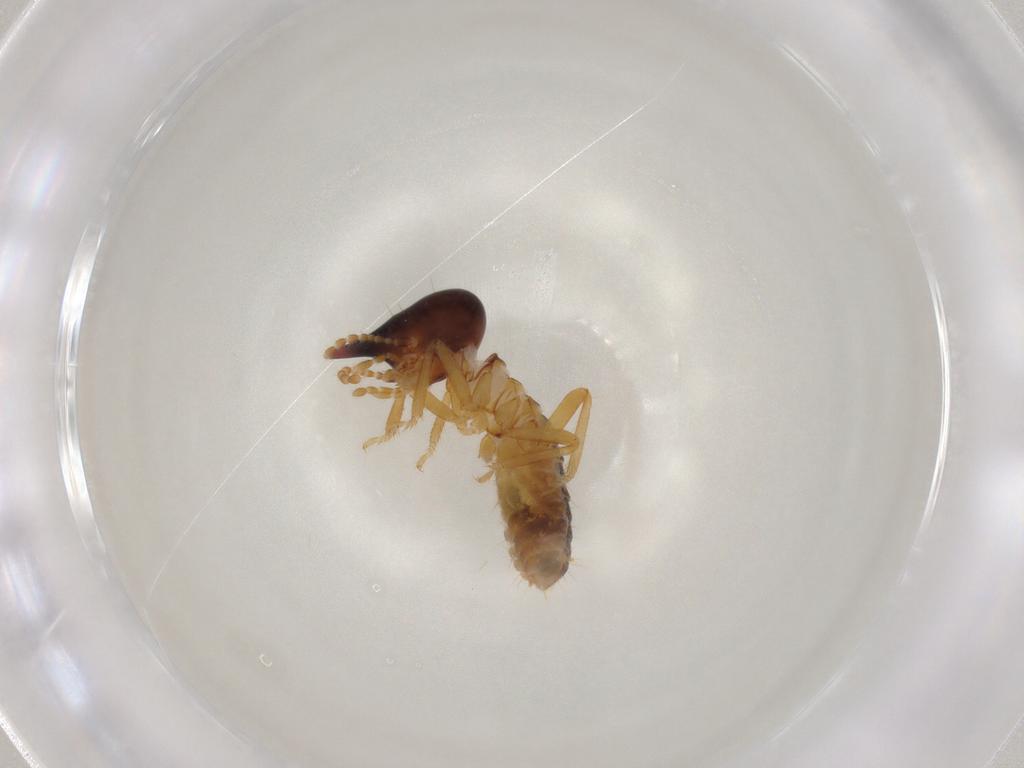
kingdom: Animalia
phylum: Arthropoda
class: Insecta
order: Blattodea
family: Termitidae
